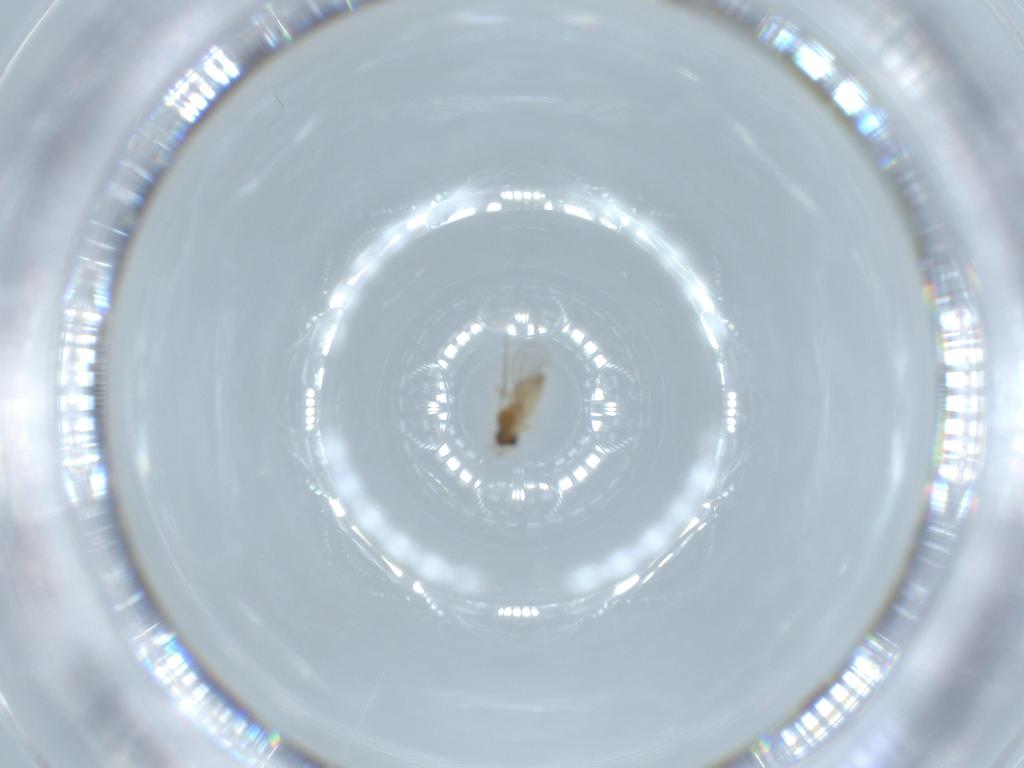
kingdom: Animalia
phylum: Arthropoda
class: Insecta
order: Diptera
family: Cecidomyiidae
